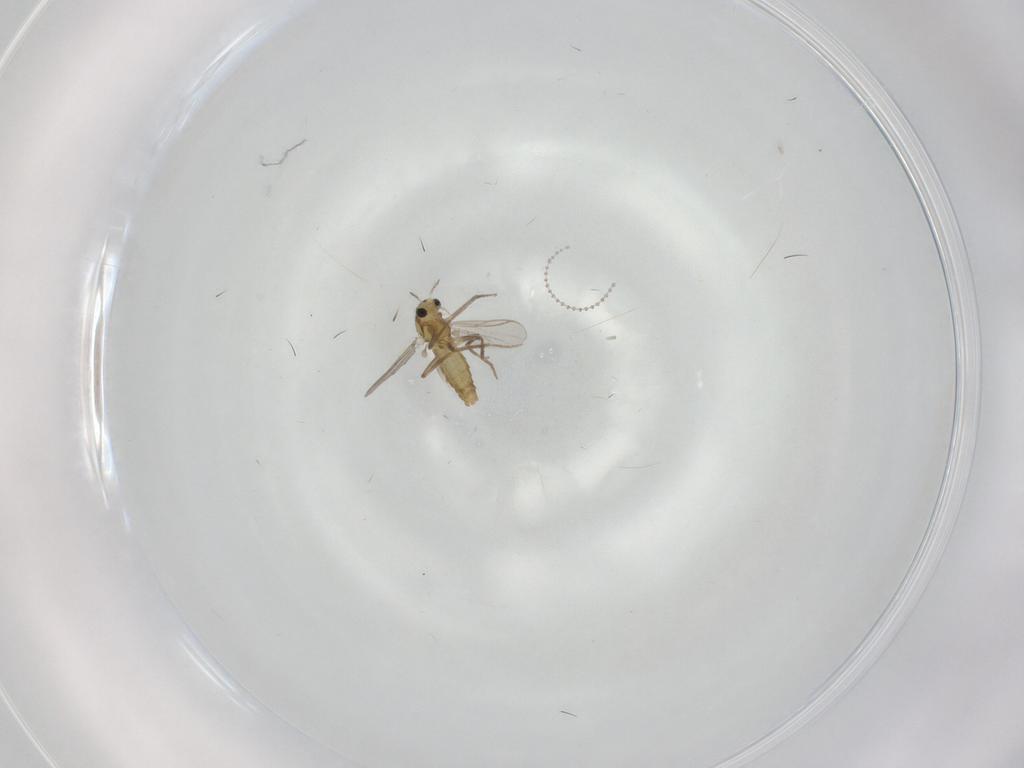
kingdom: Animalia
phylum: Arthropoda
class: Insecta
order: Diptera
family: Chironomidae
